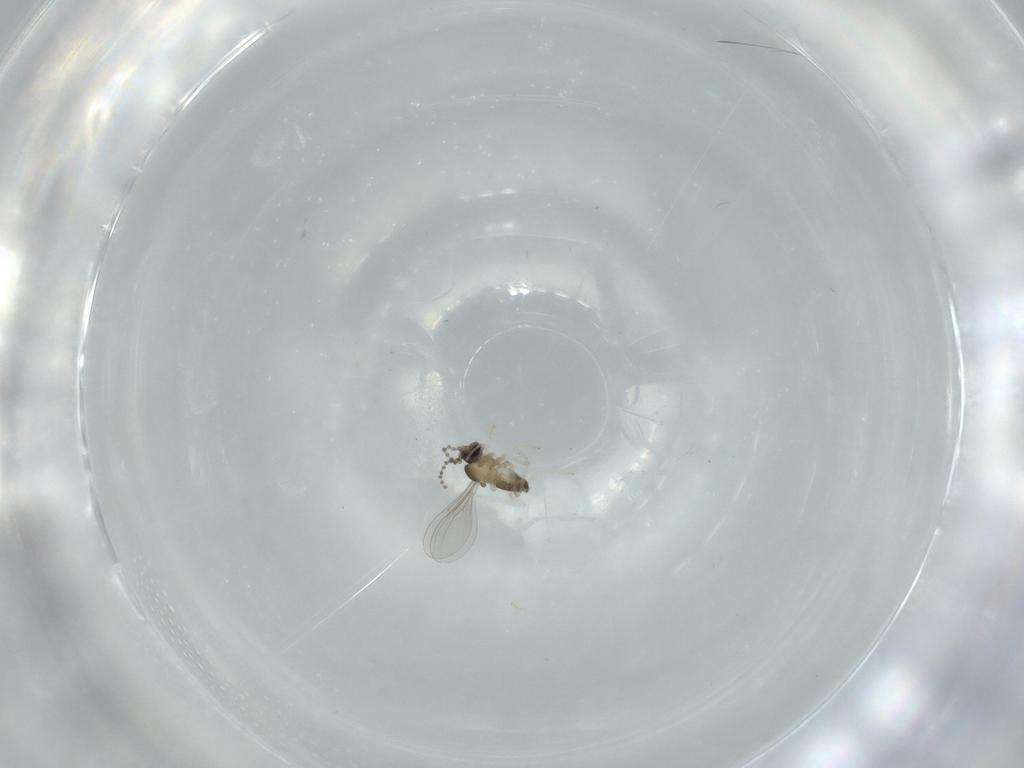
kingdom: Animalia
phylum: Arthropoda
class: Insecta
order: Diptera
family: Cecidomyiidae
